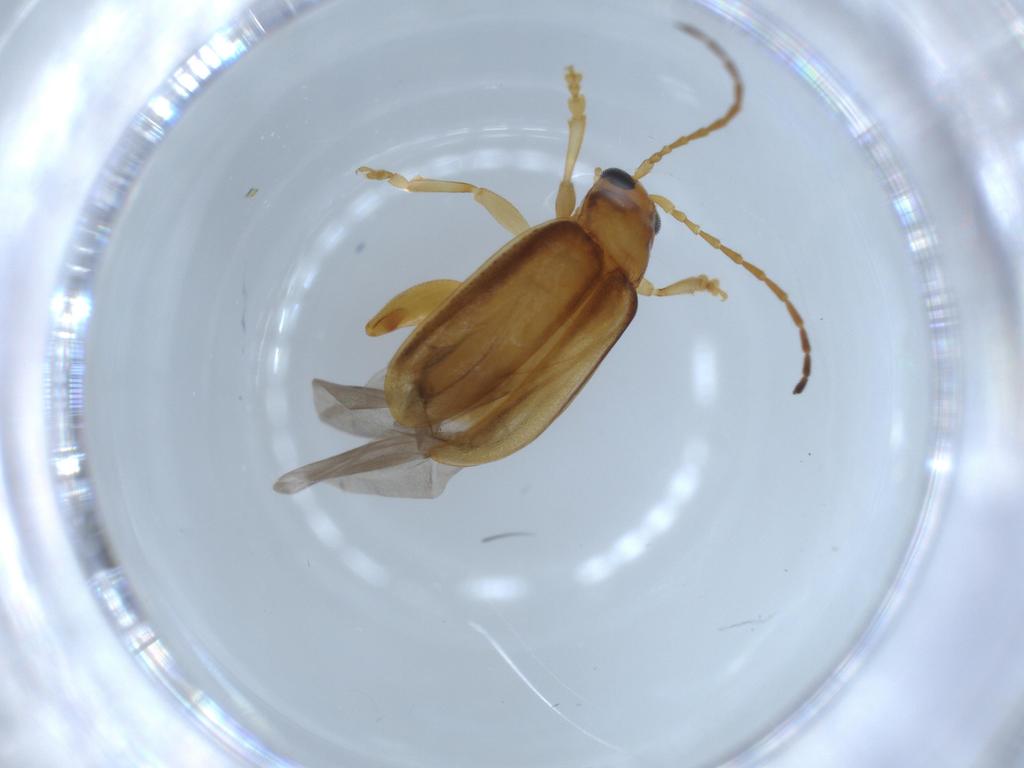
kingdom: Animalia
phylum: Arthropoda
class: Insecta
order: Coleoptera
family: Chrysomelidae
